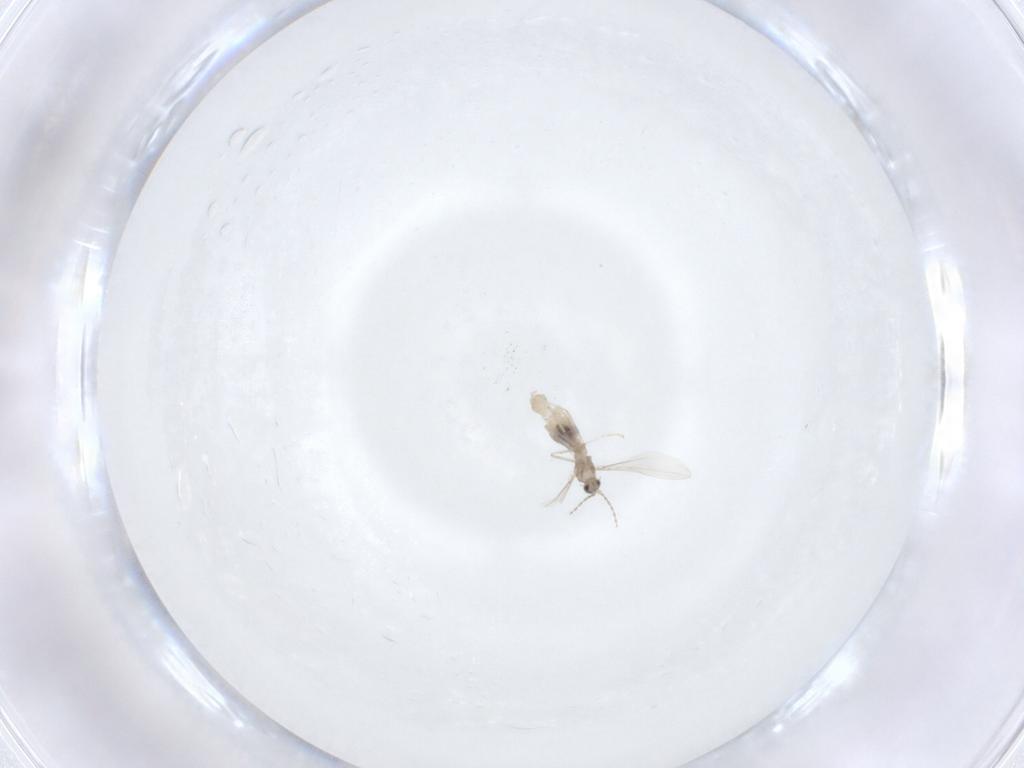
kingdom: Animalia
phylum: Arthropoda
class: Insecta
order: Diptera
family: Cecidomyiidae
